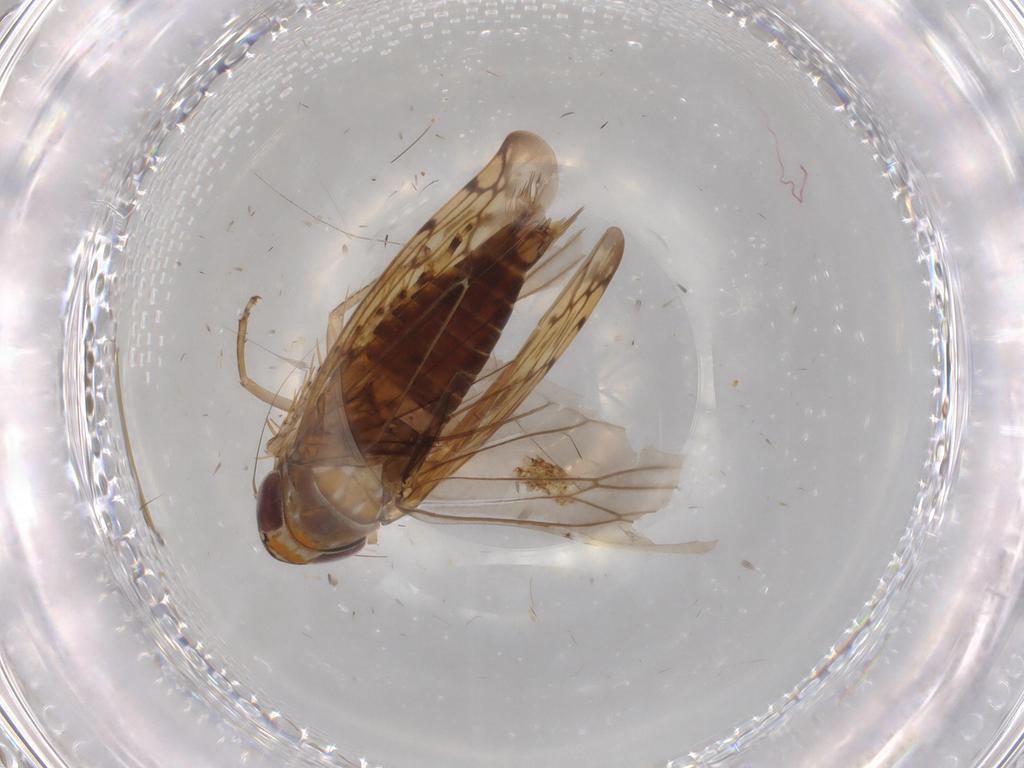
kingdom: Animalia
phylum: Arthropoda
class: Insecta
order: Hemiptera
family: Cicadellidae
